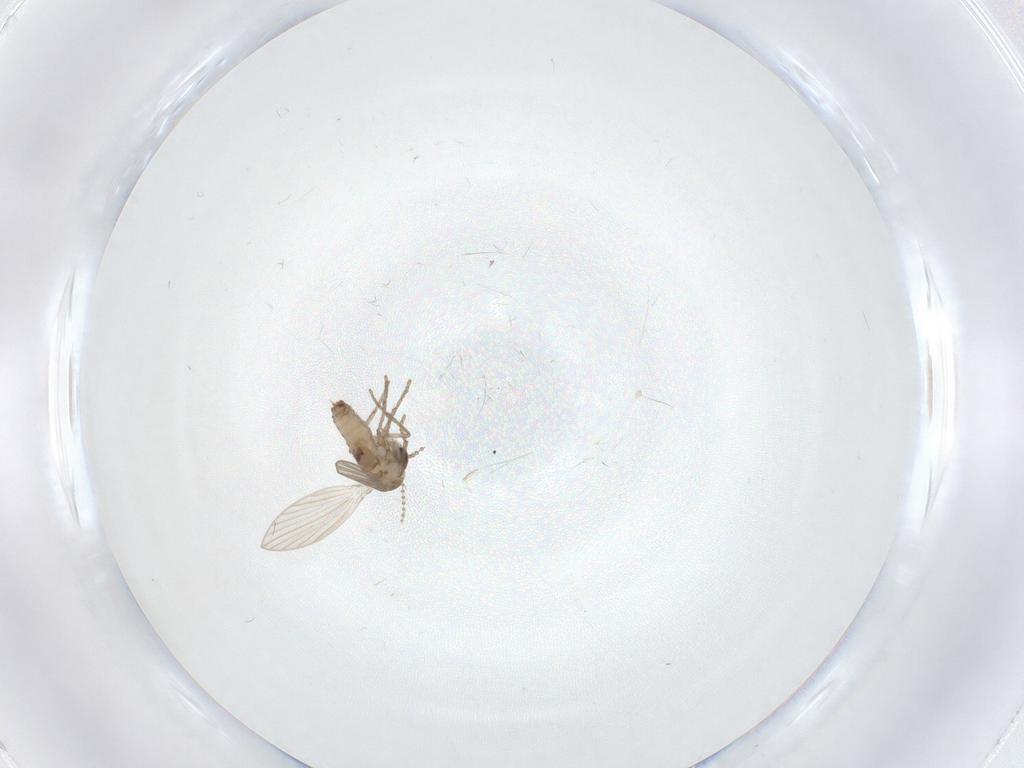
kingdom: Animalia
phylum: Arthropoda
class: Insecta
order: Diptera
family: Psychodidae
